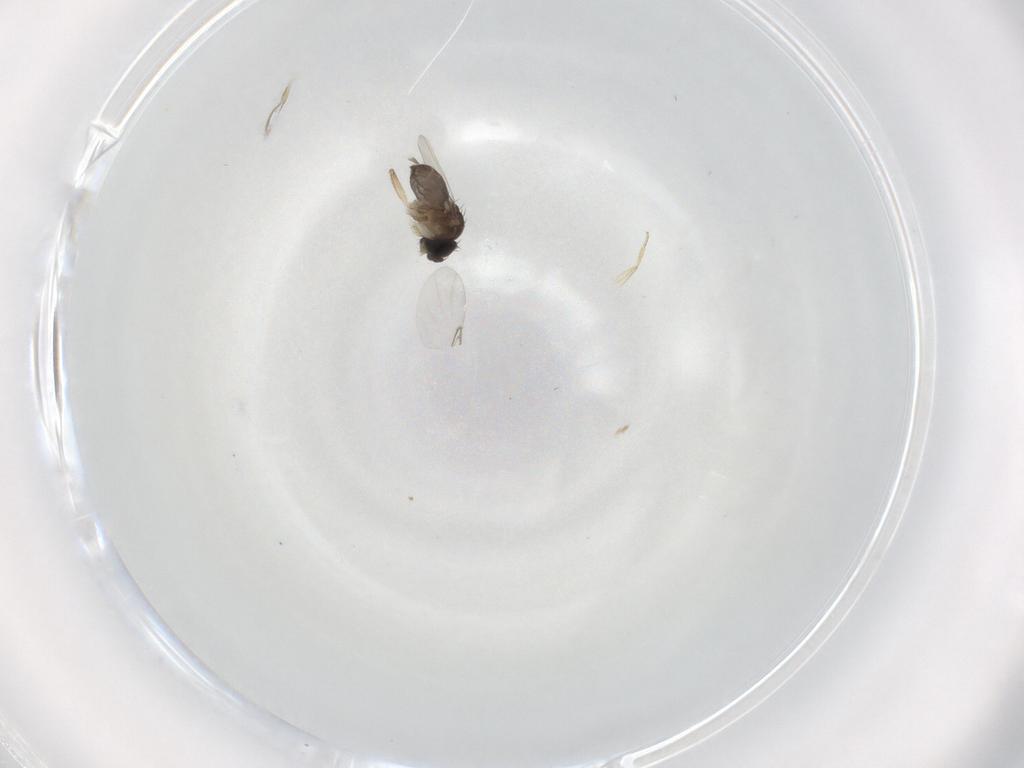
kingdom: Animalia
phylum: Arthropoda
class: Insecta
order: Diptera
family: Phoridae
